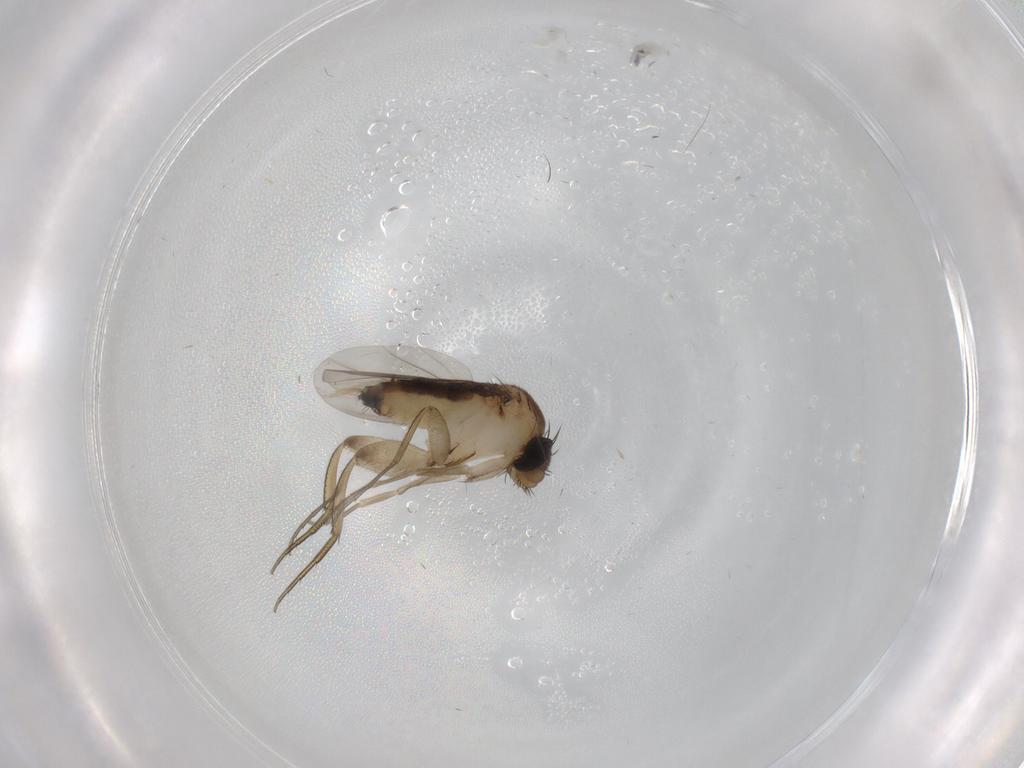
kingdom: Animalia
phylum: Arthropoda
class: Insecta
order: Diptera
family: Phoridae
